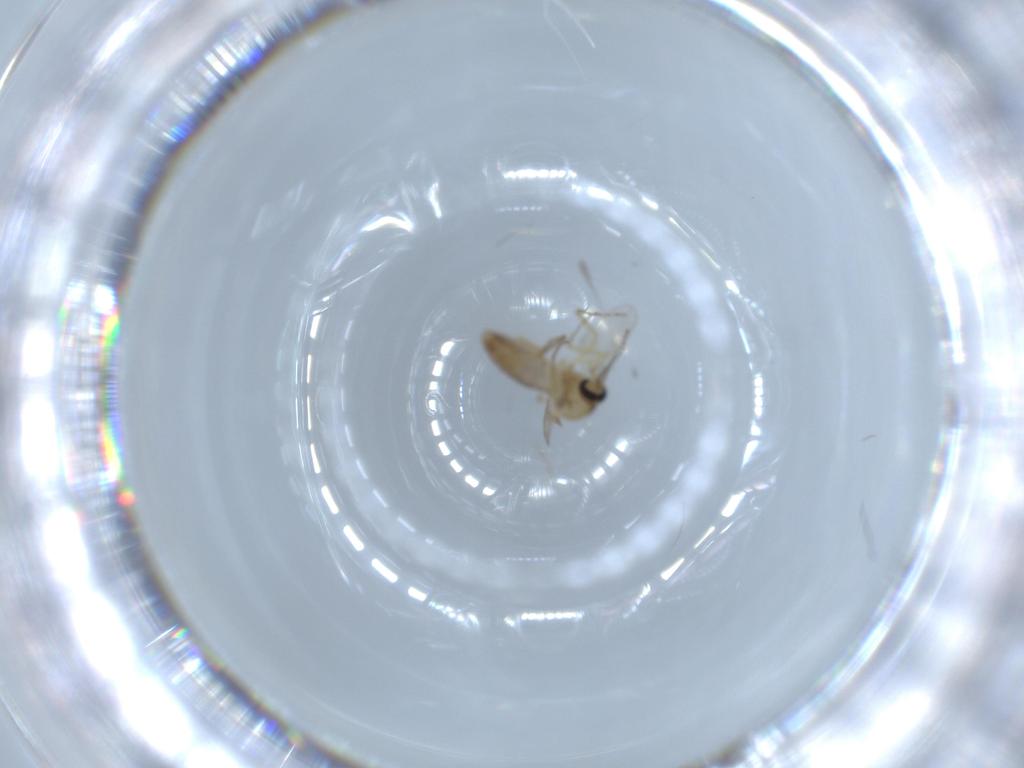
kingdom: Animalia
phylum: Arthropoda
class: Insecta
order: Diptera
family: Ceratopogonidae
